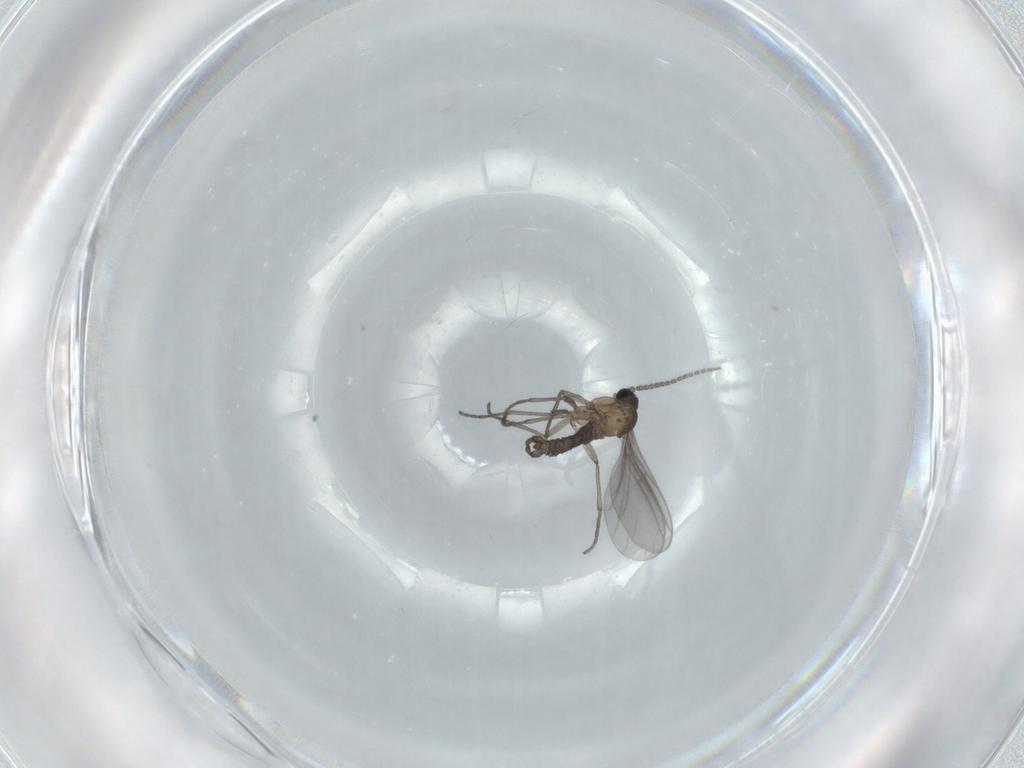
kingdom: Animalia
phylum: Arthropoda
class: Insecta
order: Diptera
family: Sciaridae
